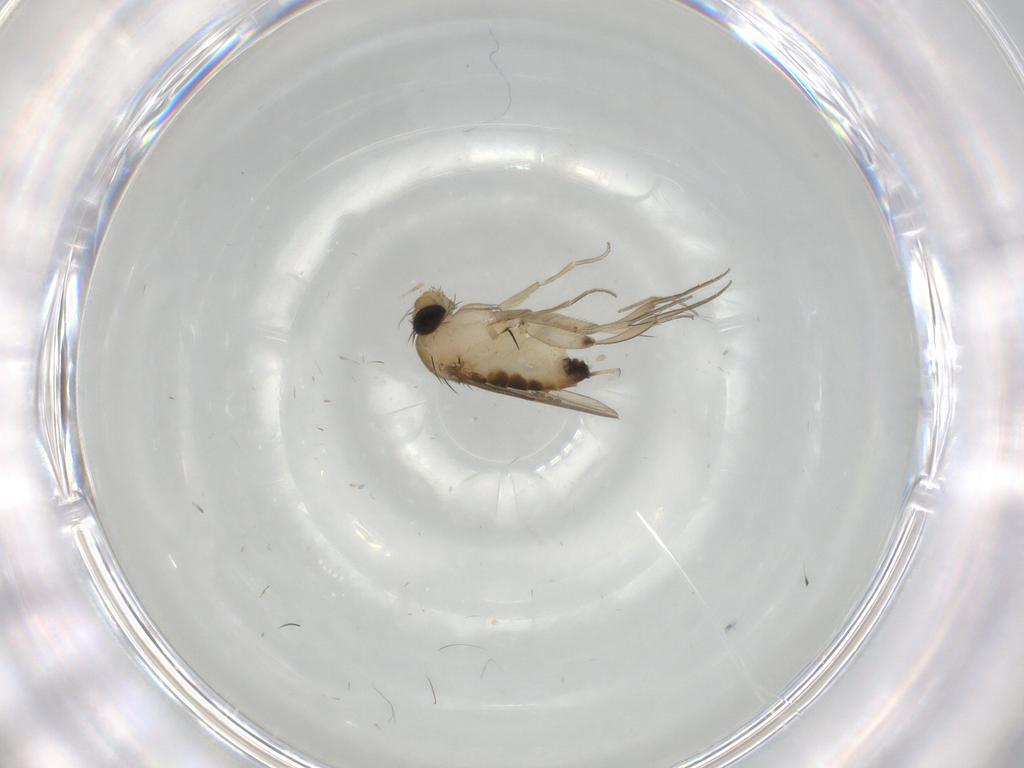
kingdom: Animalia
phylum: Arthropoda
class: Insecta
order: Diptera
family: Phoridae
